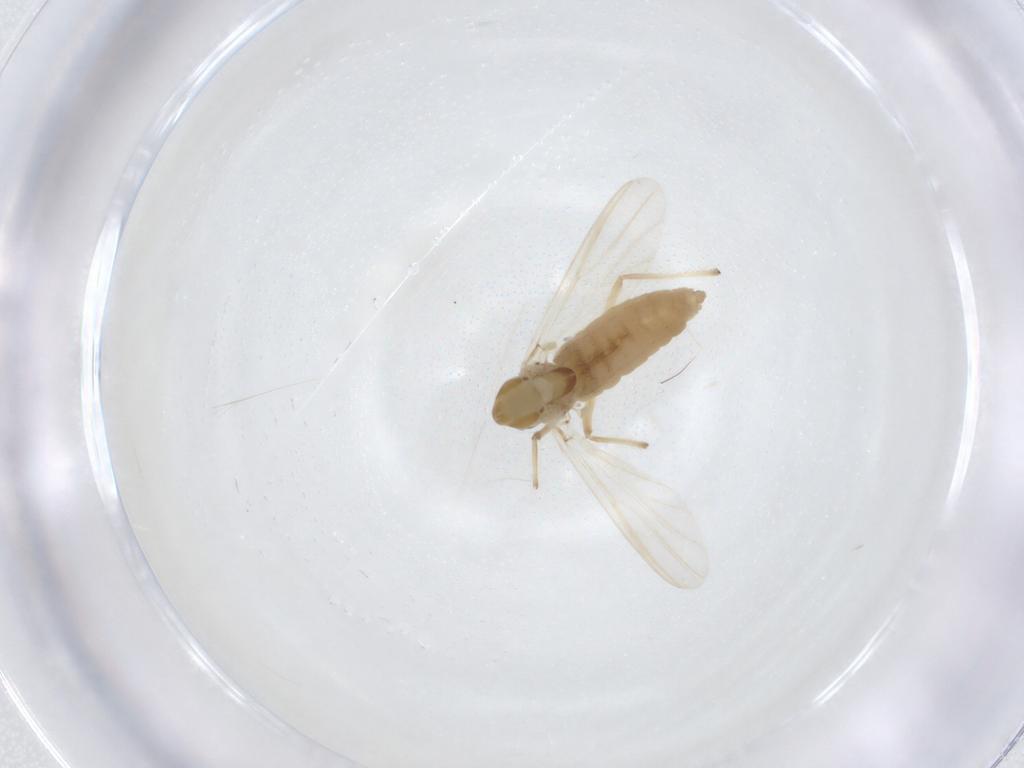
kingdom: Animalia
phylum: Arthropoda
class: Insecta
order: Diptera
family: Chironomidae
